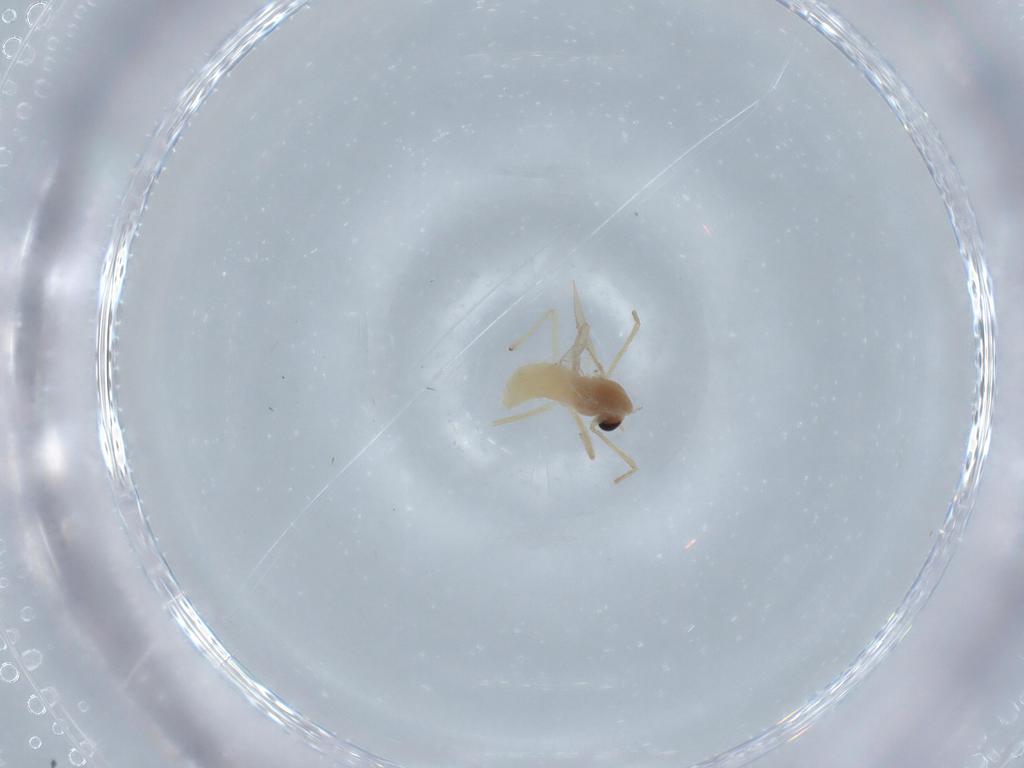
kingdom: Animalia
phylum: Arthropoda
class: Insecta
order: Diptera
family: Chironomidae
